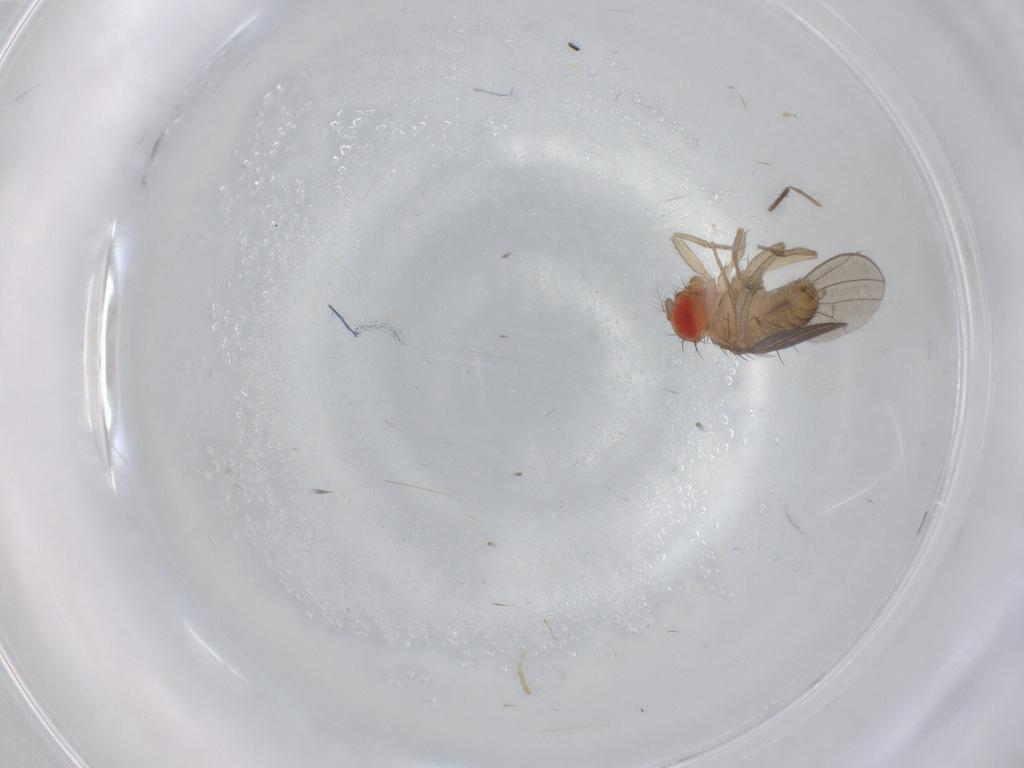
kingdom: Animalia
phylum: Arthropoda
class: Insecta
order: Diptera
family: Drosophilidae
